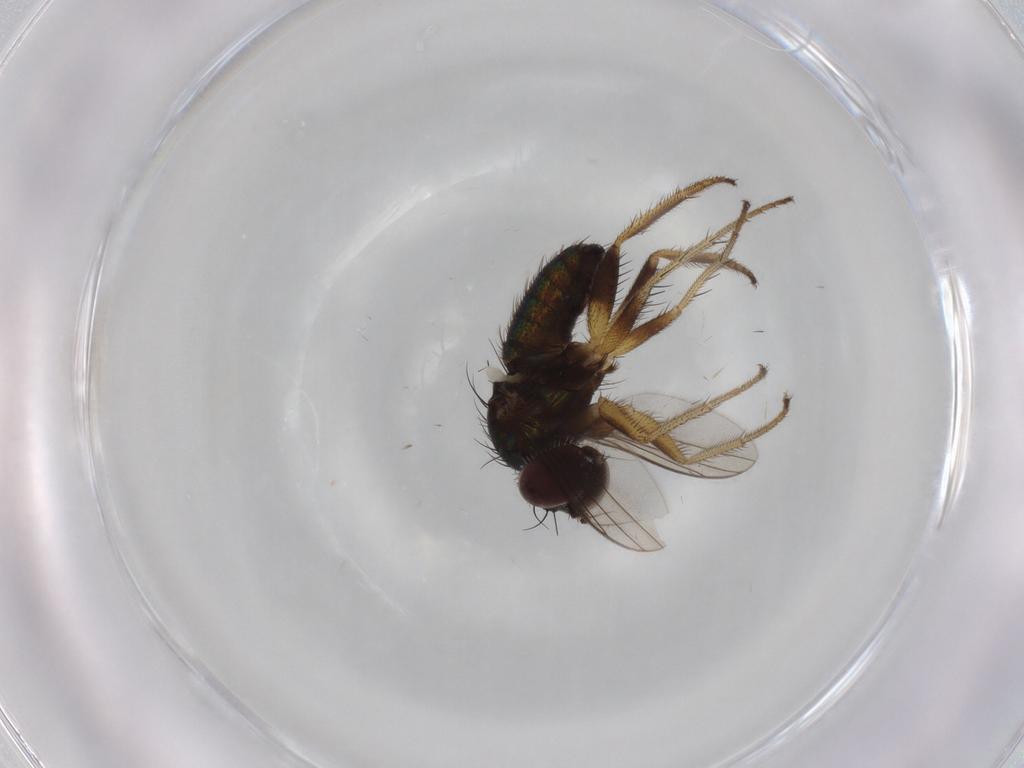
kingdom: Animalia
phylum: Arthropoda
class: Insecta
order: Diptera
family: Dolichopodidae
